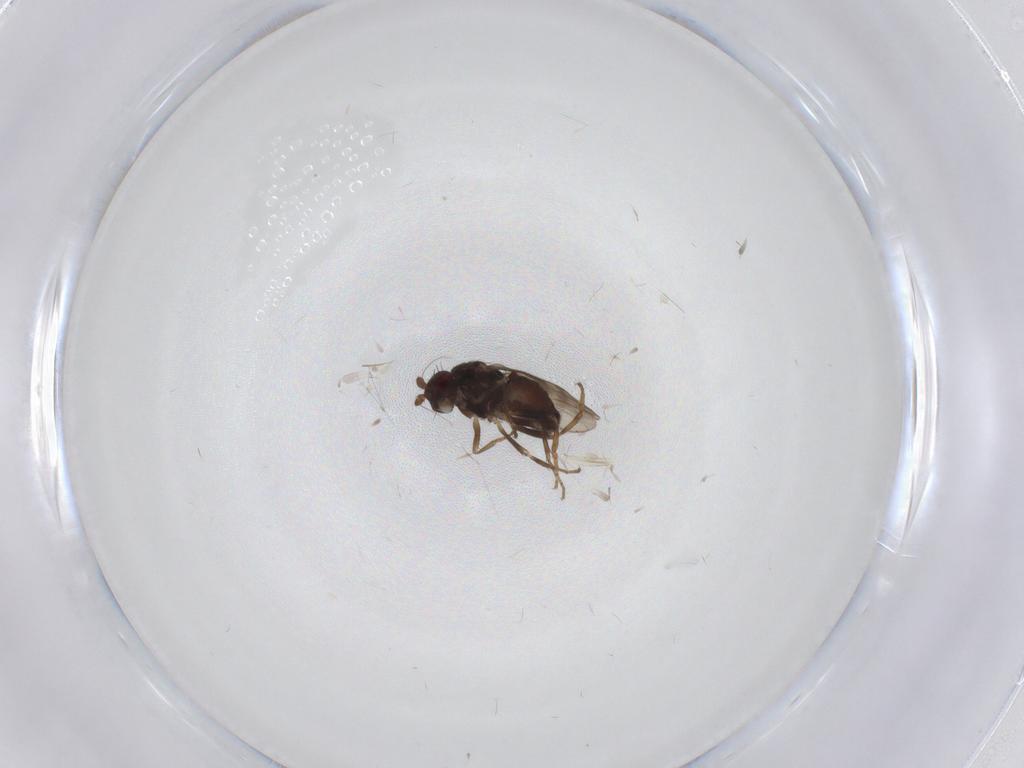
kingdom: Animalia
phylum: Arthropoda
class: Insecta
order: Diptera
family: Sphaeroceridae
